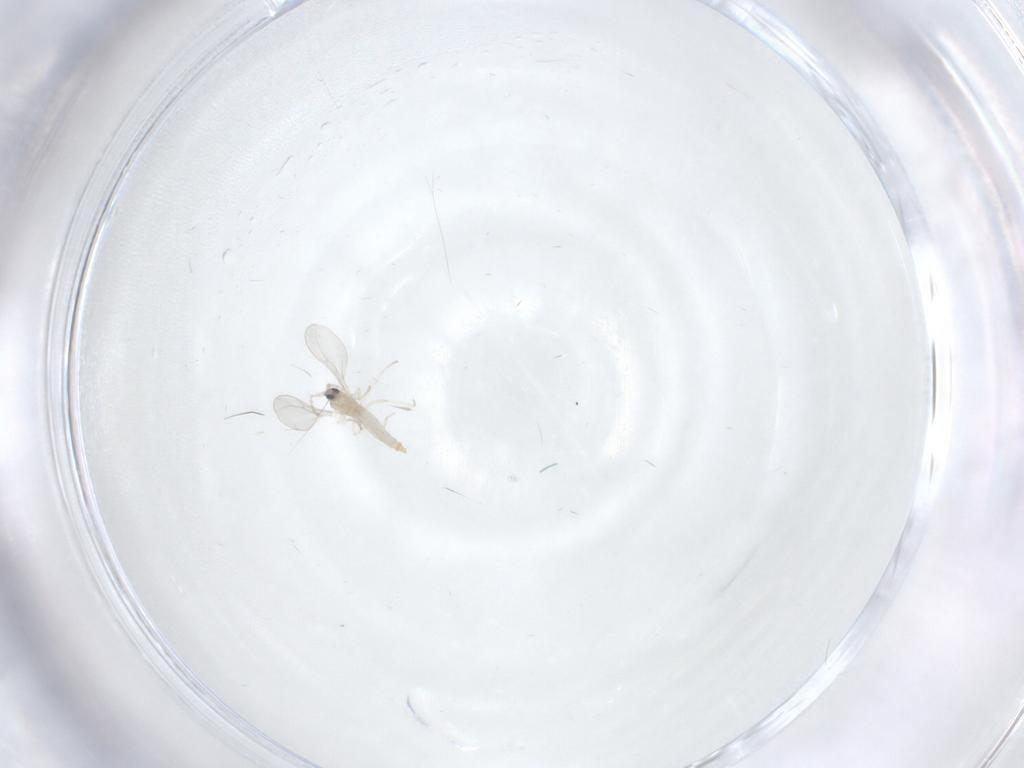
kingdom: Animalia
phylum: Arthropoda
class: Insecta
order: Diptera
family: Cecidomyiidae
